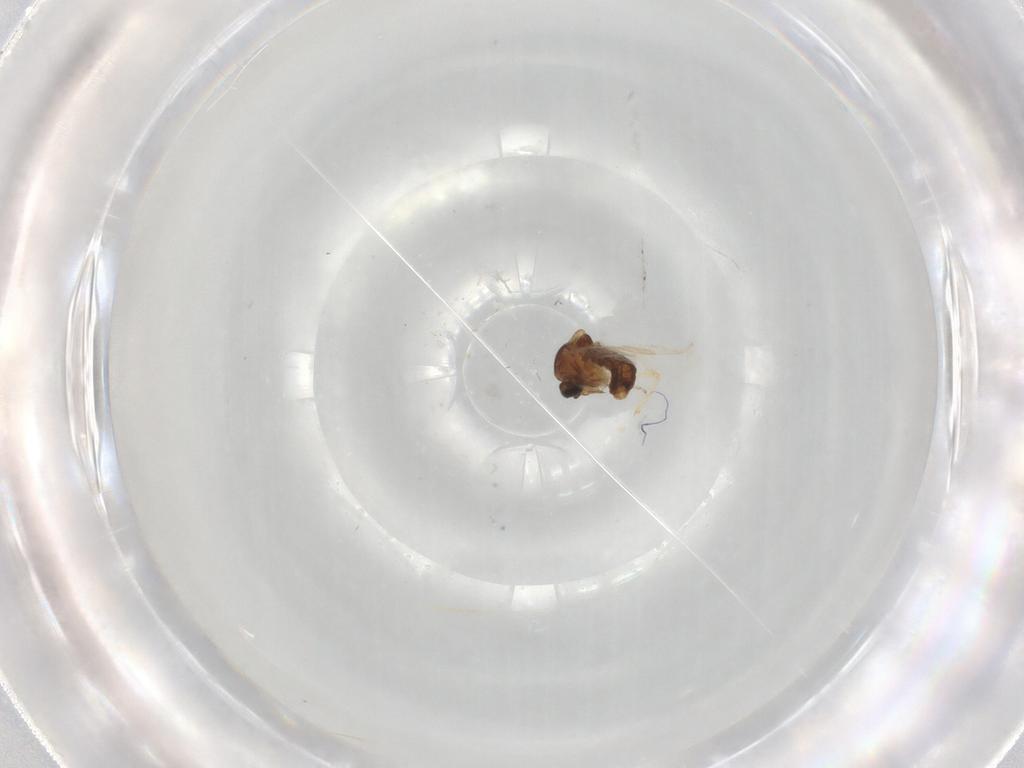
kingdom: Animalia
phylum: Arthropoda
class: Insecta
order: Diptera
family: Ceratopogonidae
